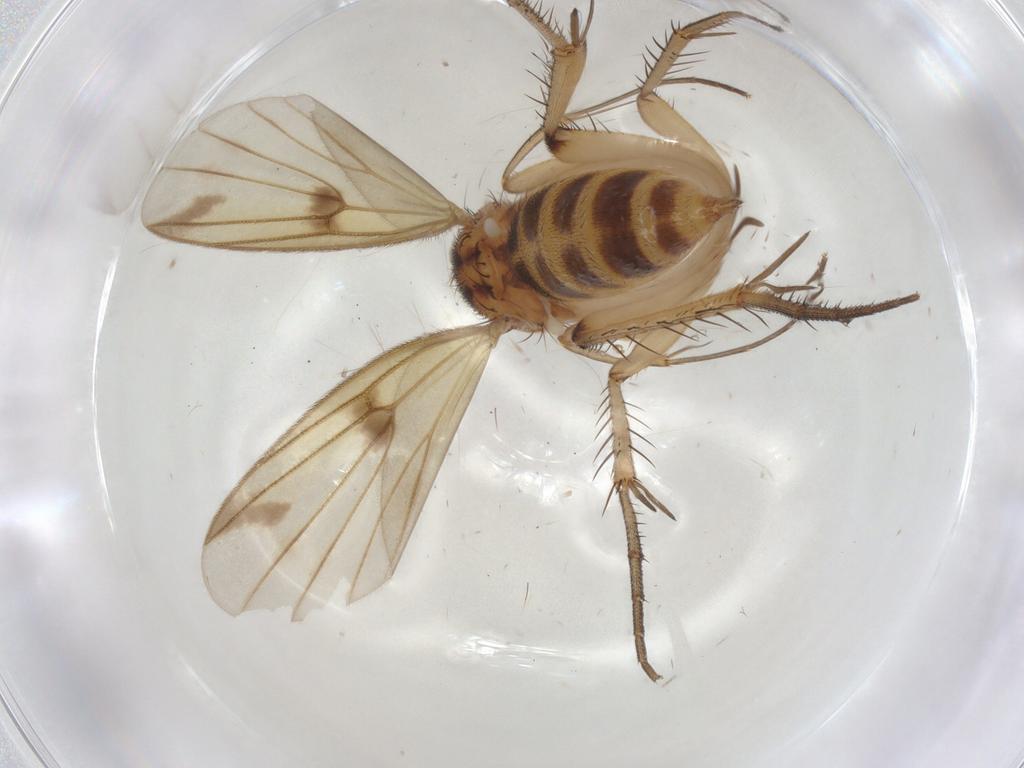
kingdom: Animalia
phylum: Arthropoda
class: Insecta
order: Diptera
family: Mycetophilidae
